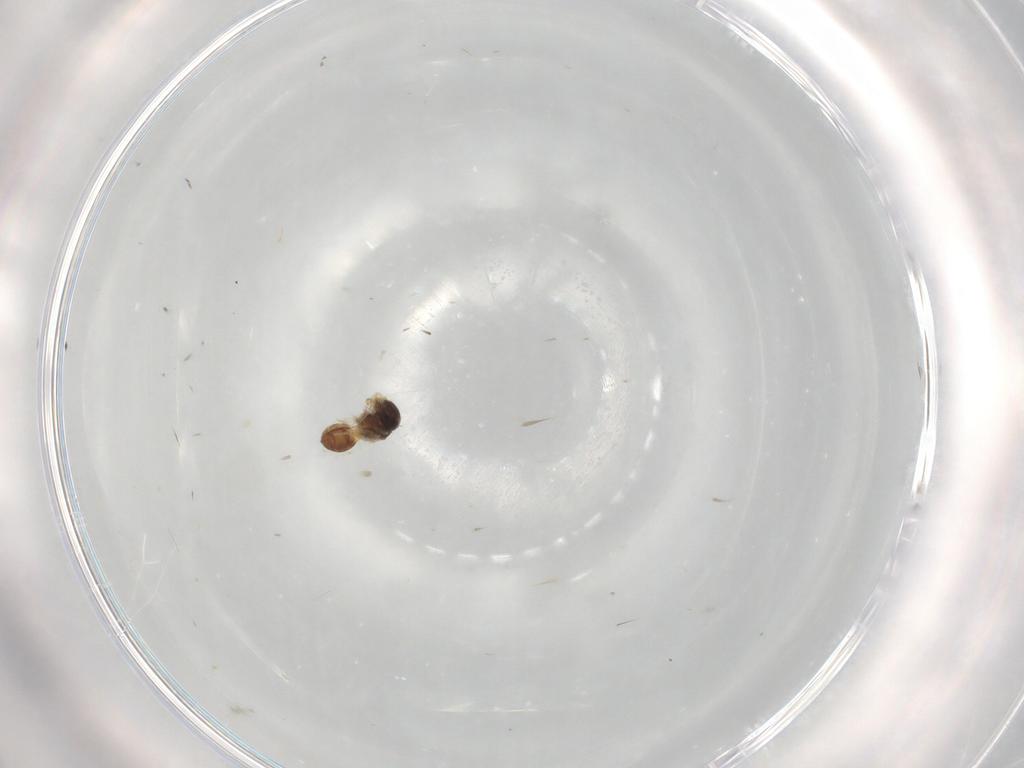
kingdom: Animalia
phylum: Arthropoda
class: Insecta
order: Hymenoptera
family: Scelionidae
